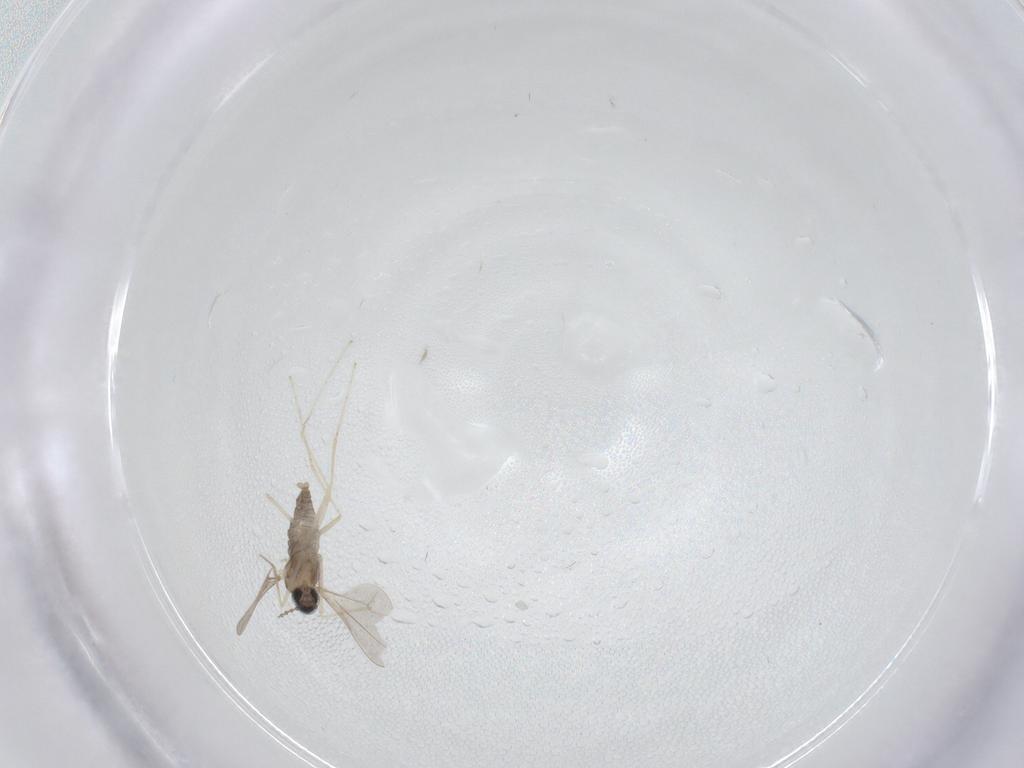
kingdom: Animalia
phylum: Arthropoda
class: Insecta
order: Diptera
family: Cecidomyiidae
